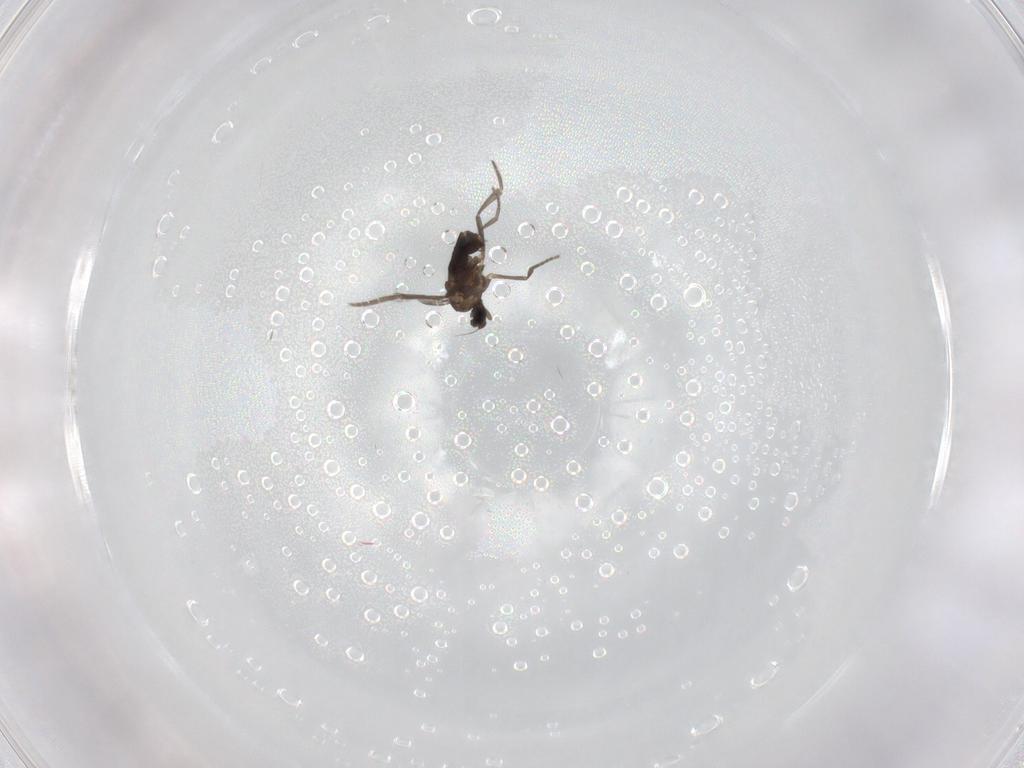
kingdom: Animalia
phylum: Arthropoda
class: Insecta
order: Diptera
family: Phoridae
